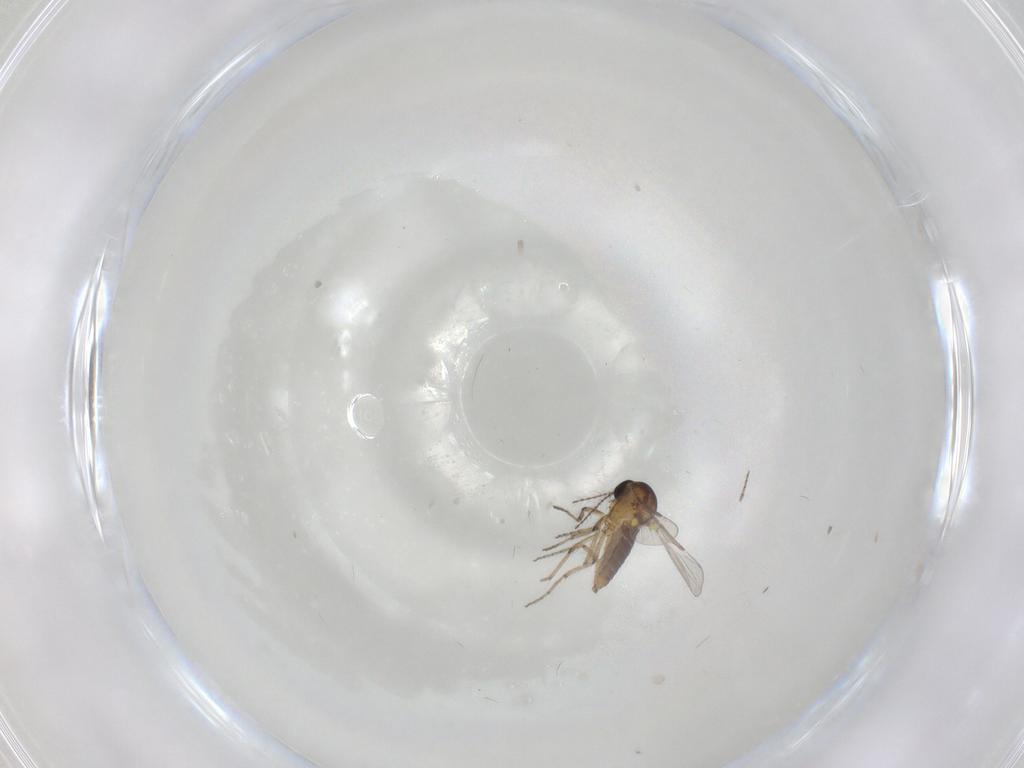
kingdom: Animalia
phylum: Arthropoda
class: Insecta
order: Diptera
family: Ceratopogonidae
